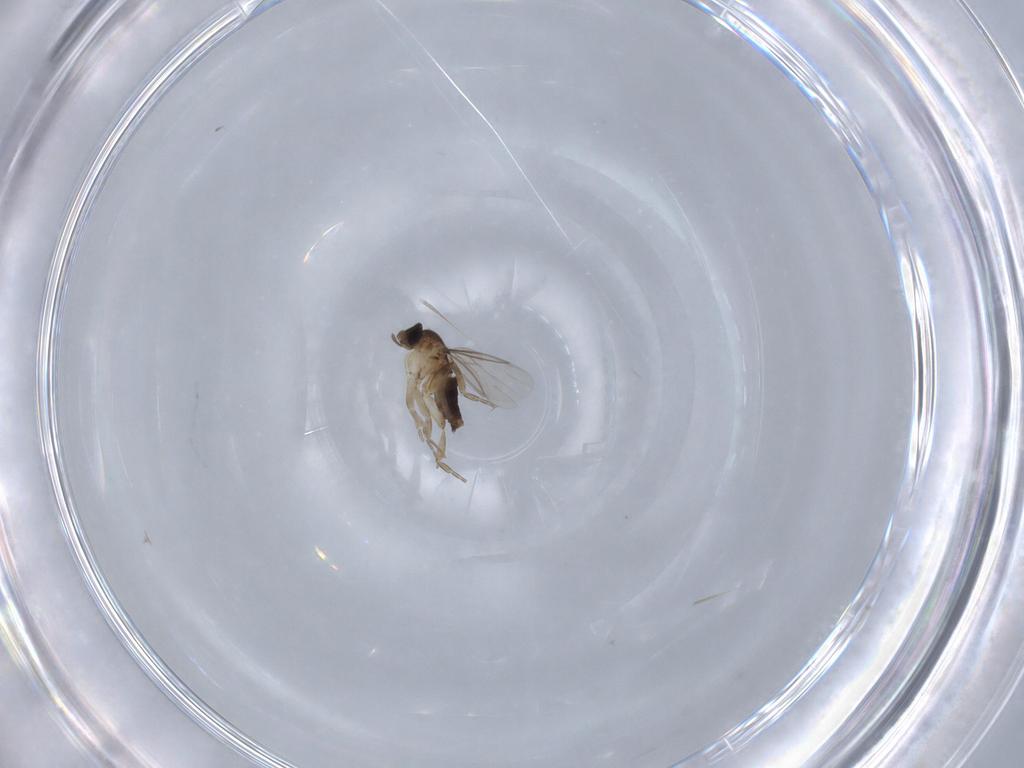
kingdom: Animalia
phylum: Arthropoda
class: Insecta
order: Diptera
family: Phoridae
